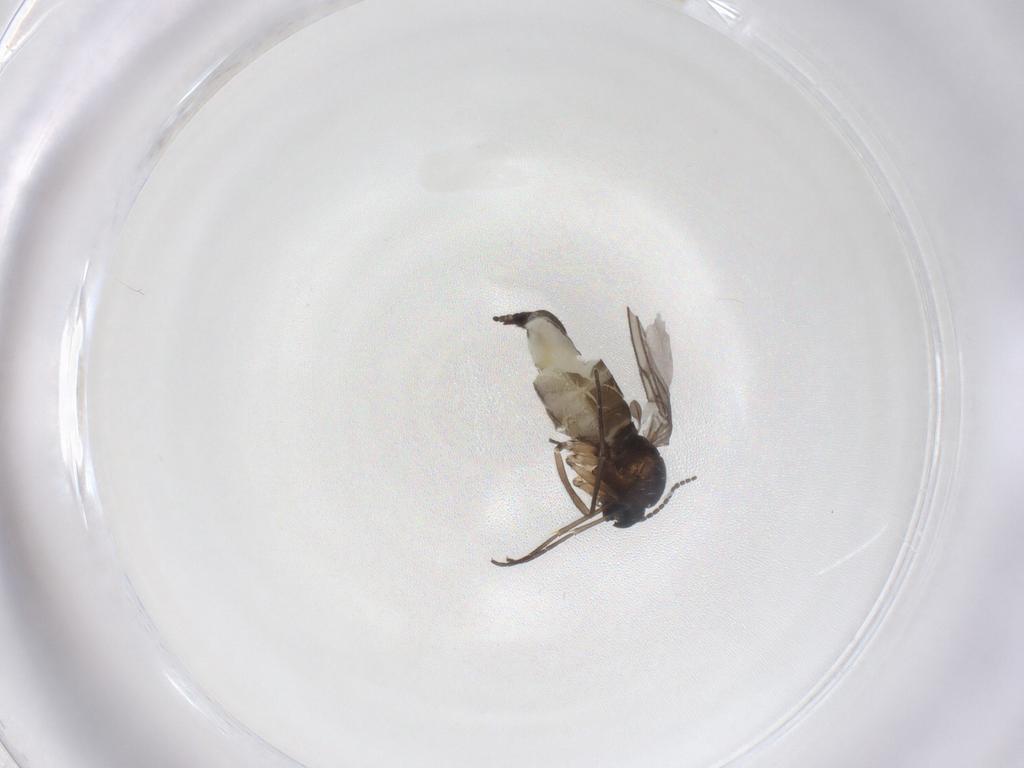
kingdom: Animalia
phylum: Arthropoda
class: Insecta
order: Diptera
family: Sciaridae
